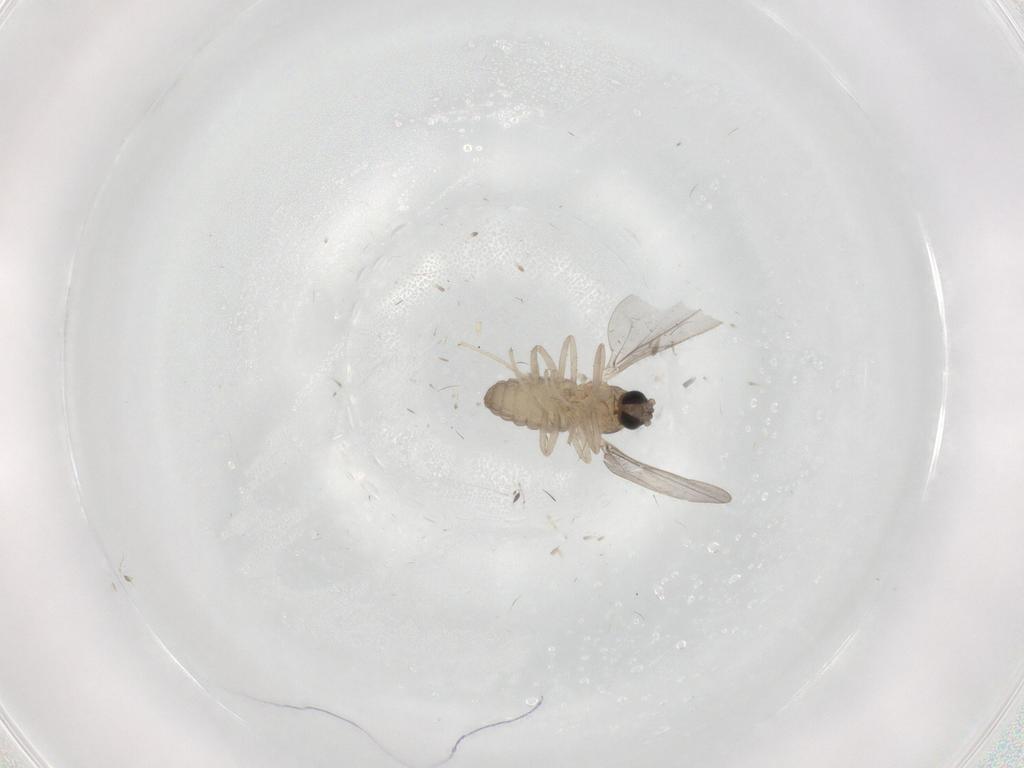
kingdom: Animalia
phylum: Arthropoda
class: Insecta
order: Diptera
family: Cecidomyiidae
